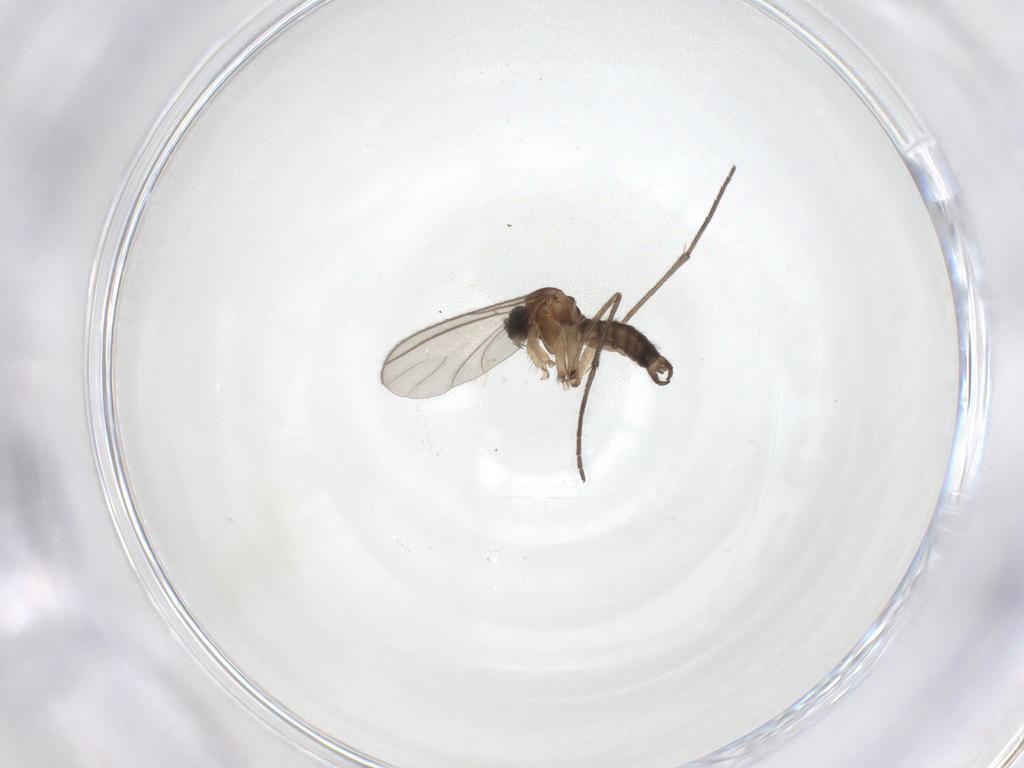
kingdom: Animalia
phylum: Arthropoda
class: Insecta
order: Diptera
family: Sciaridae
